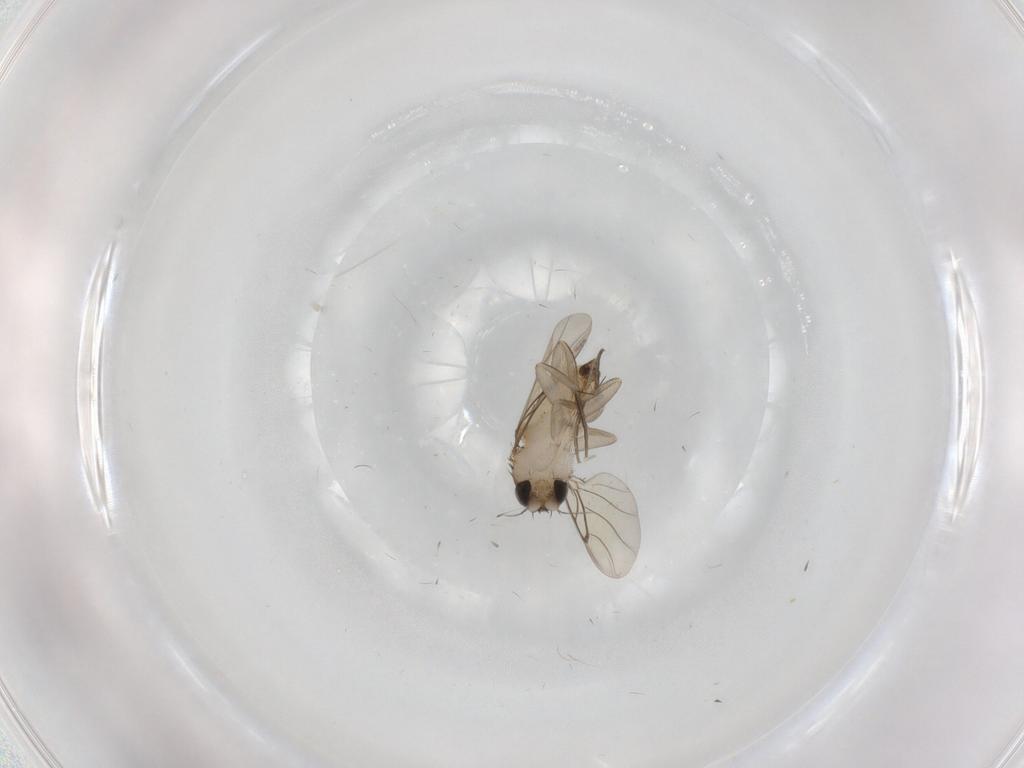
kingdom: Animalia
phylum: Arthropoda
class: Insecta
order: Diptera
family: Ceratopogonidae
